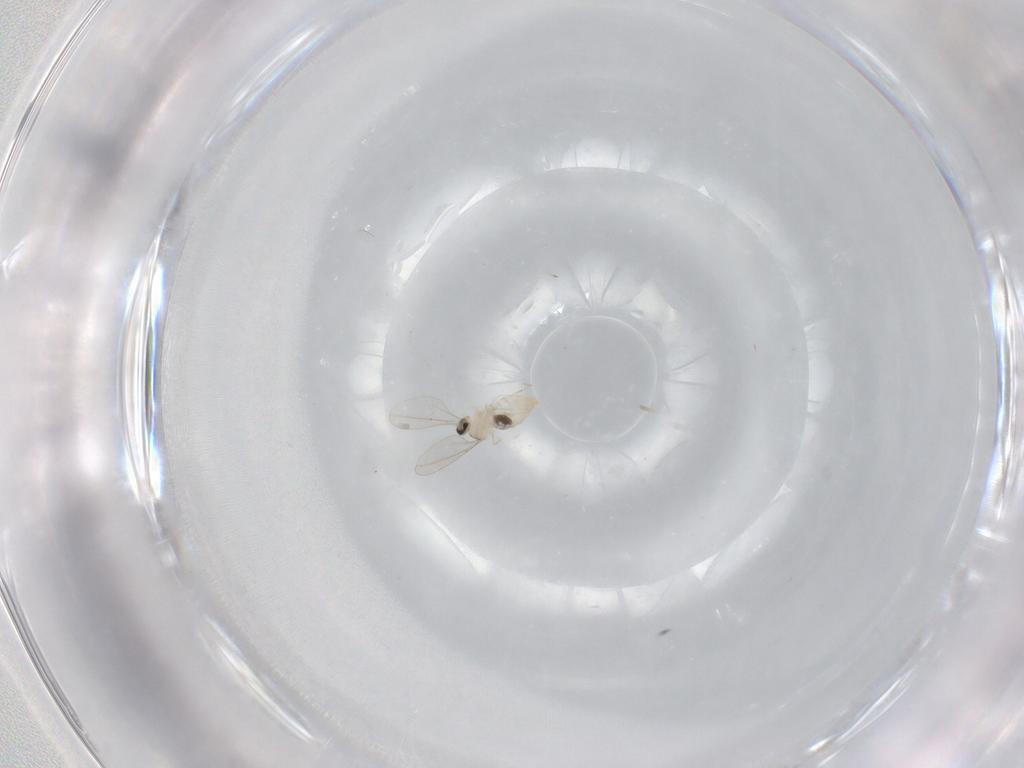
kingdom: Animalia
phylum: Arthropoda
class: Insecta
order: Diptera
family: Cecidomyiidae
